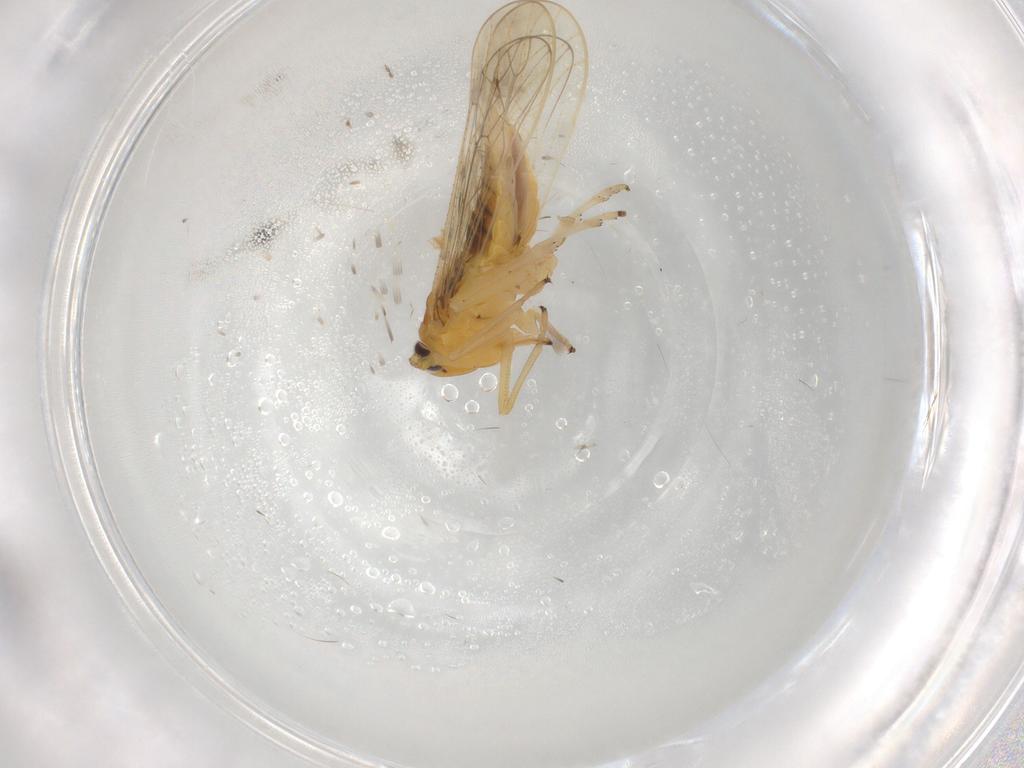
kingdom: Animalia
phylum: Arthropoda
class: Insecta
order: Hemiptera
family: Delphacidae
